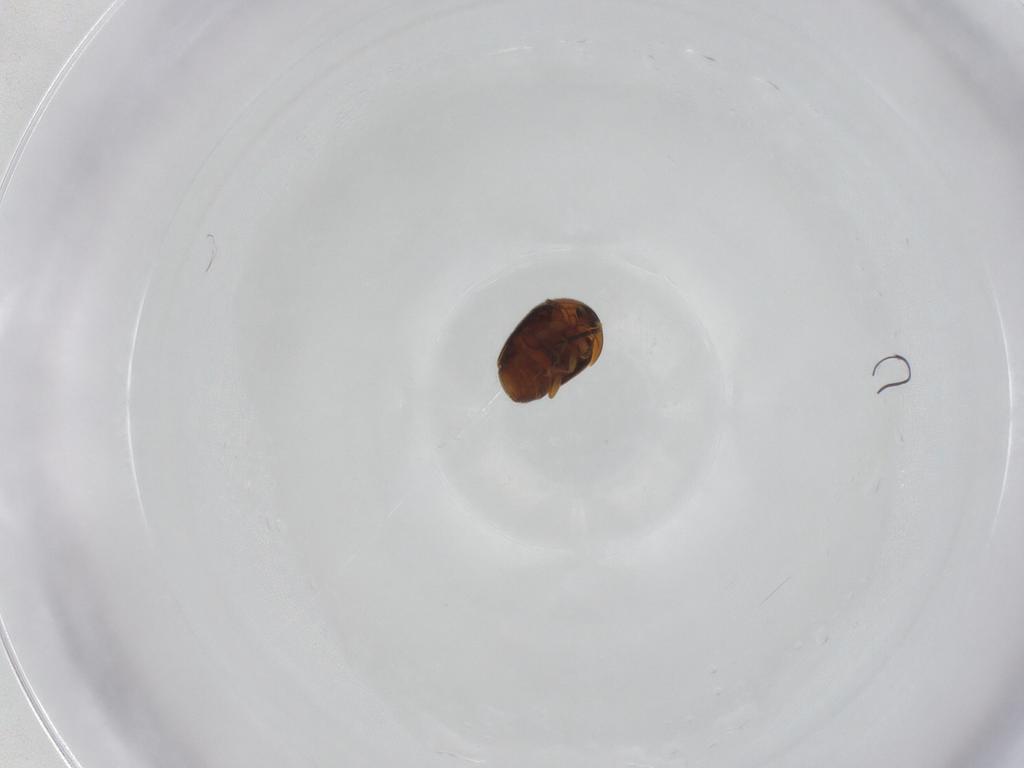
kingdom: Animalia
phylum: Arthropoda
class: Insecta
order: Coleoptera
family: Corylophidae
